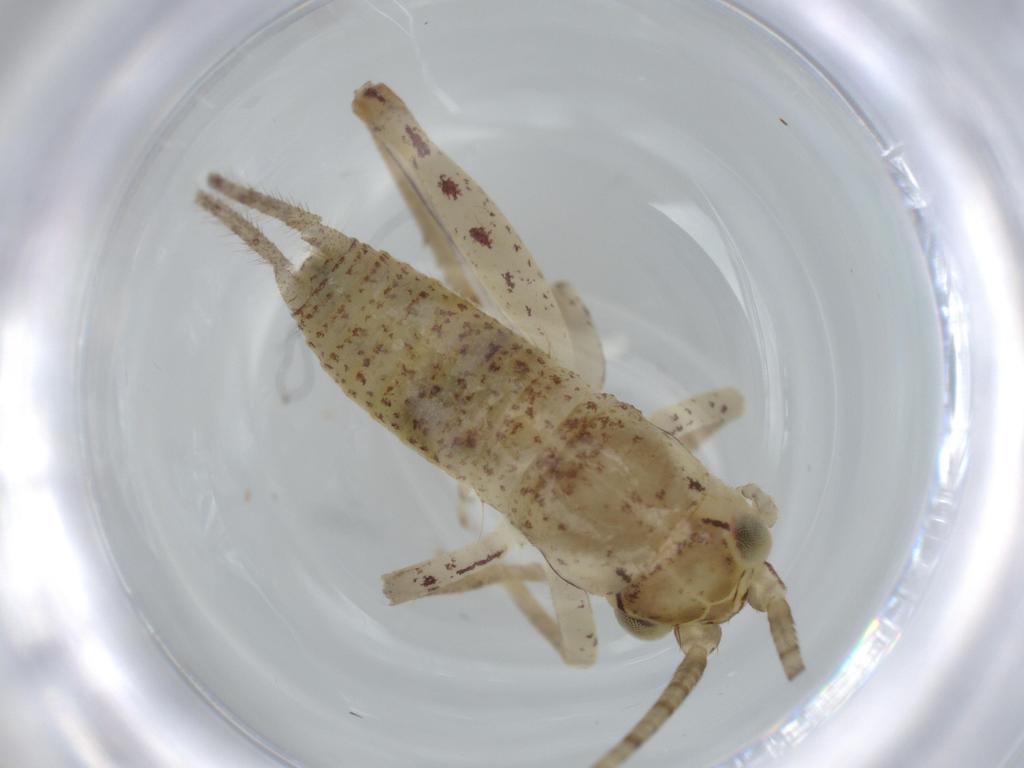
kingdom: Animalia
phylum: Arthropoda
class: Insecta
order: Orthoptera
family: Gryllidae
